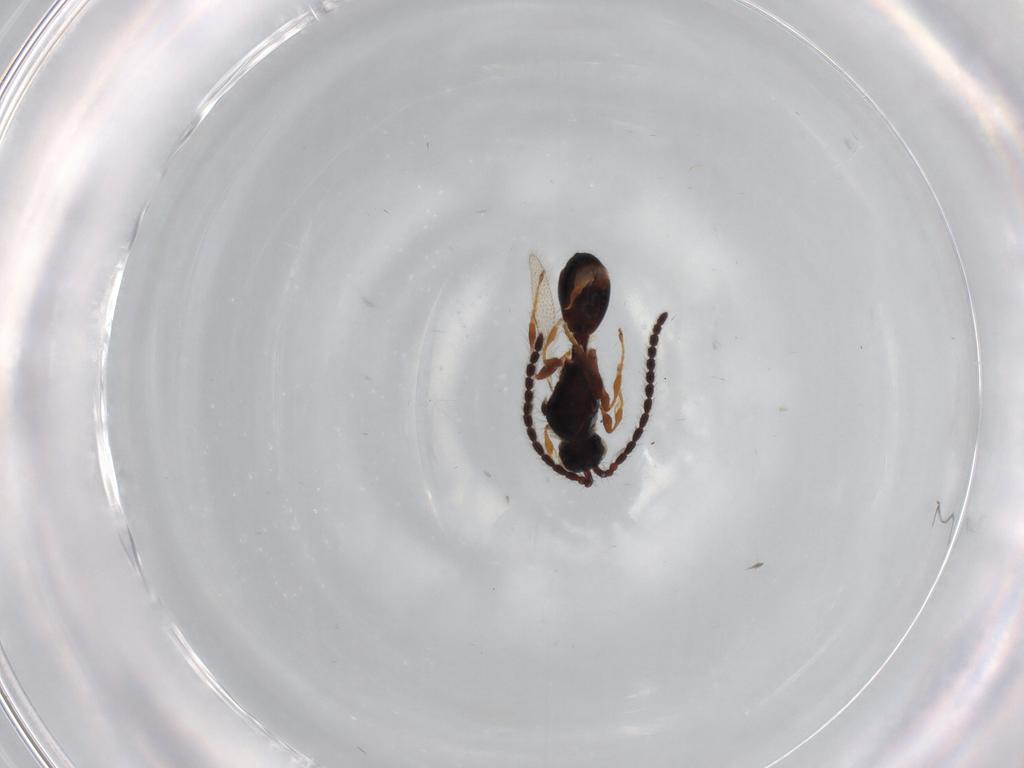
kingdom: Animalia
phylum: Arthropoda
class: Insecta
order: Hymenoptera
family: Diapriidae
